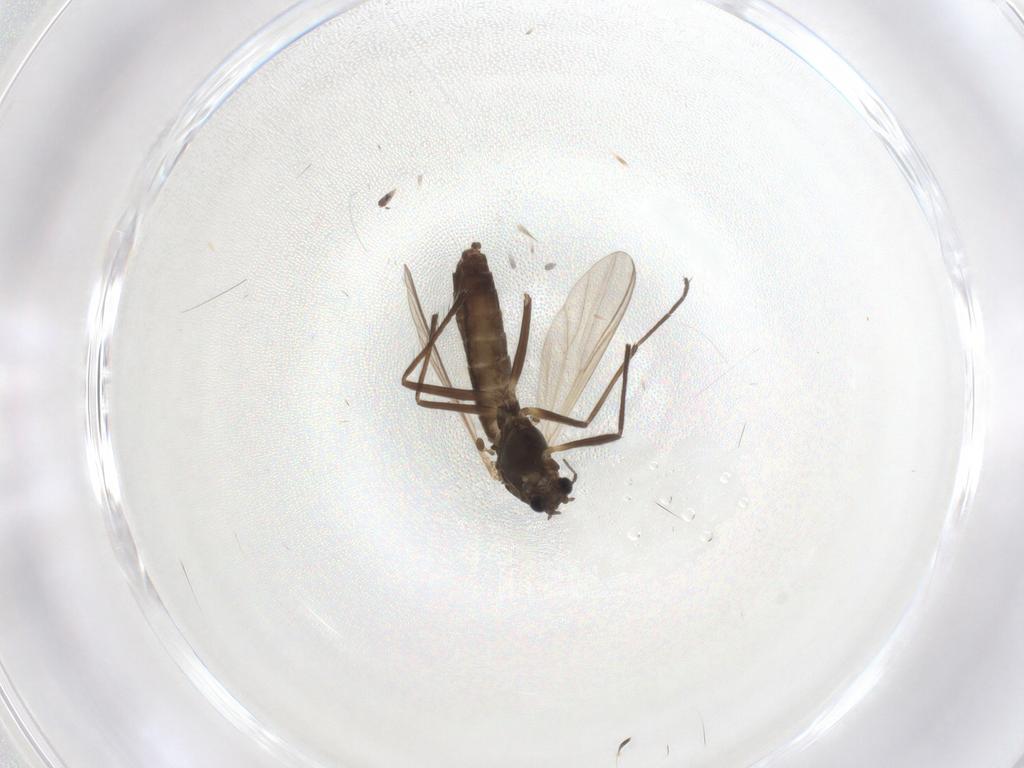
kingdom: Animalia
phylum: Arthropoda
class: Insecta
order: Diptera
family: Chironomidae
